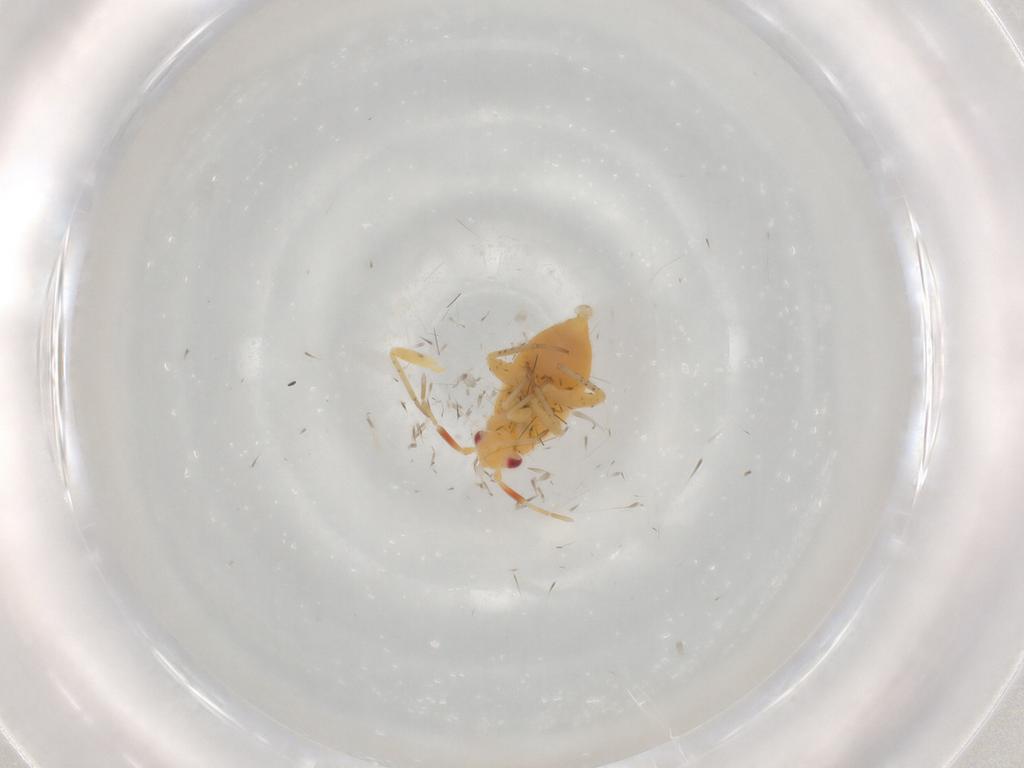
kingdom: Animalia
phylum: Arthropoda
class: Insecta
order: Hemiptera
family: Miridae
